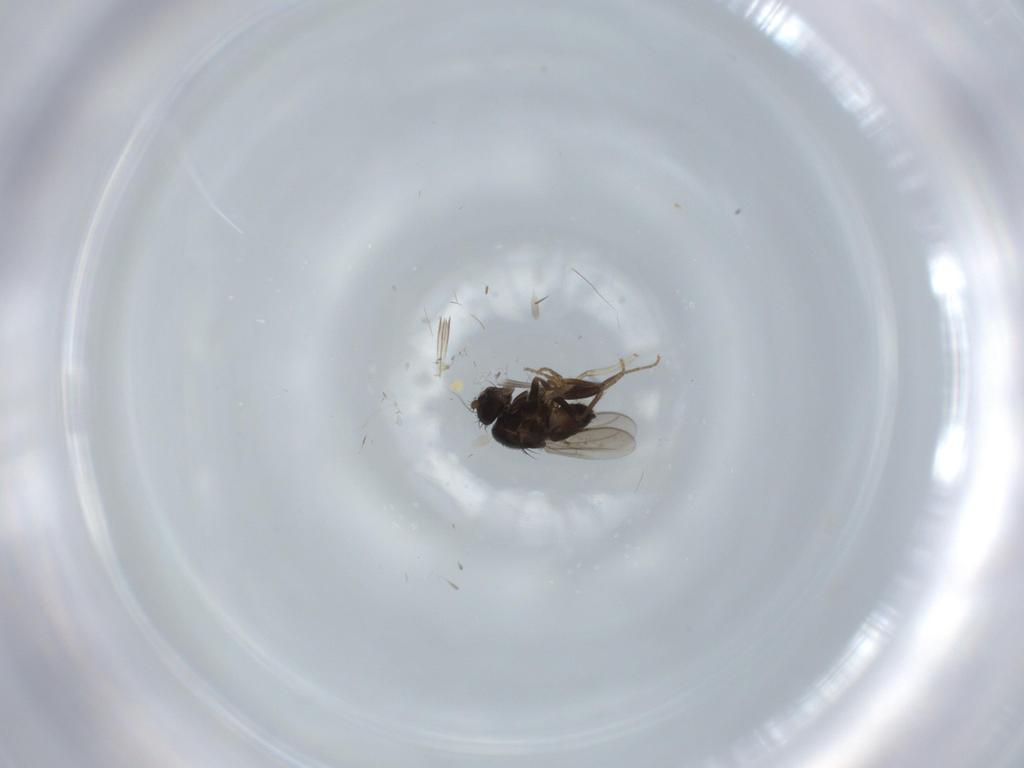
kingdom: Animalia
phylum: Arthropoda
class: Insecta
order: Diptera
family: Psychodidae
